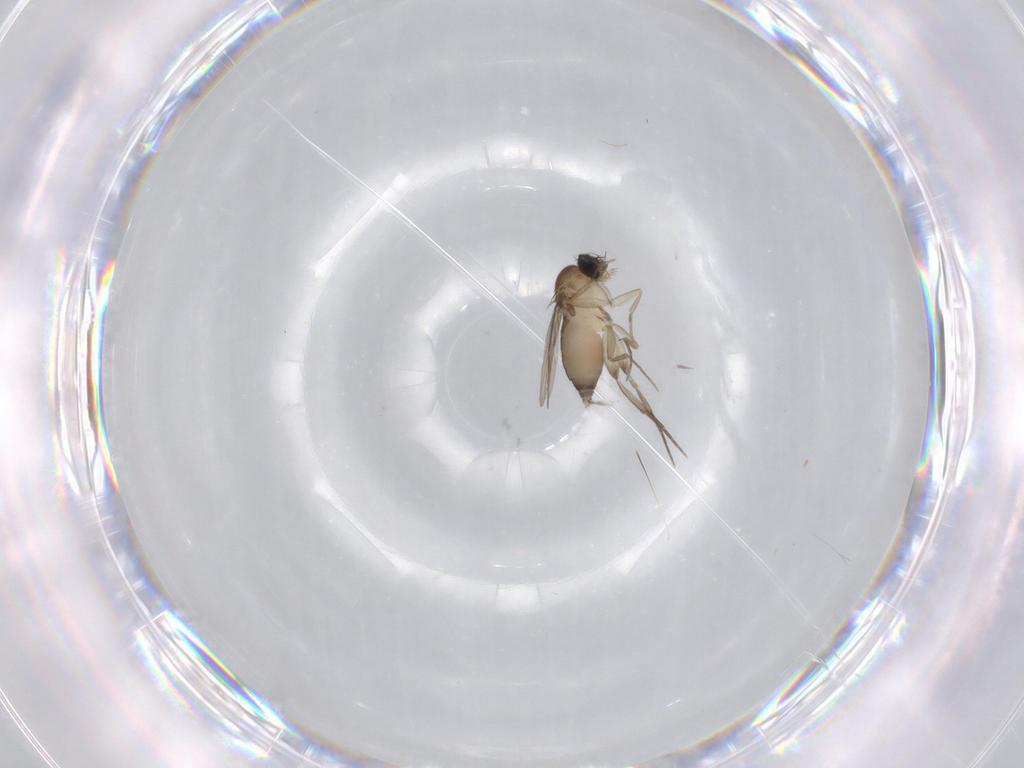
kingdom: Animalia
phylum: Arthropoda
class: Insecta
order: Diptera
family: Phoridae
